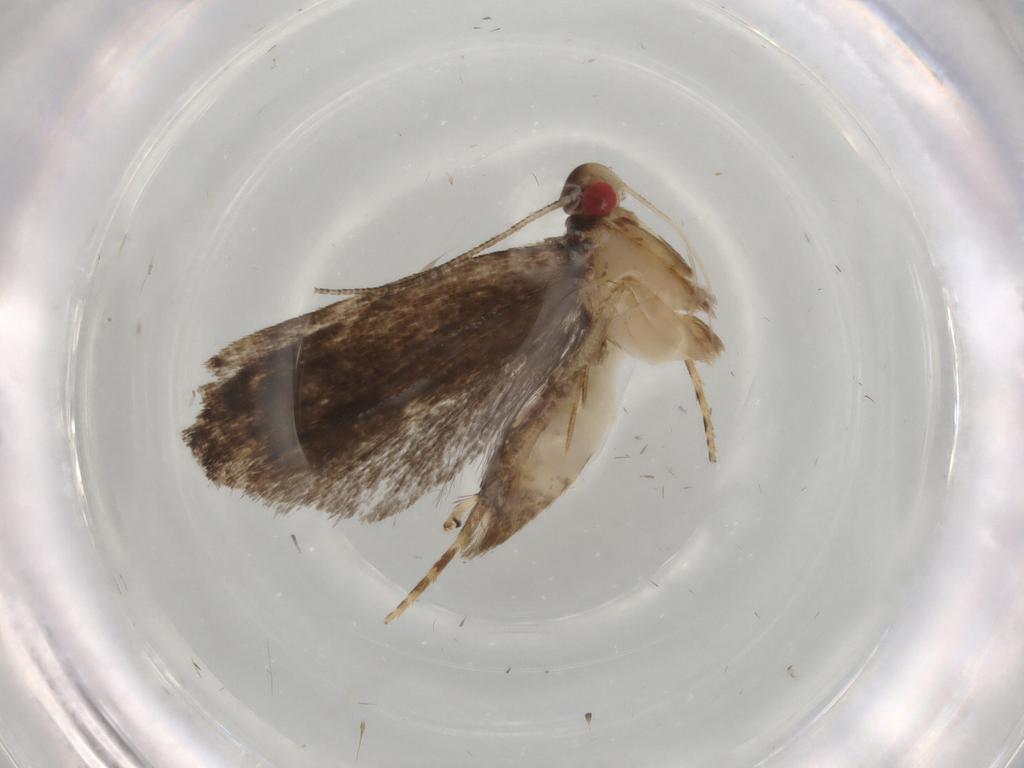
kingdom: Animalia
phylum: Arthropoda
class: Insecta
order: Lepidoptera
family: Gelechiidae
